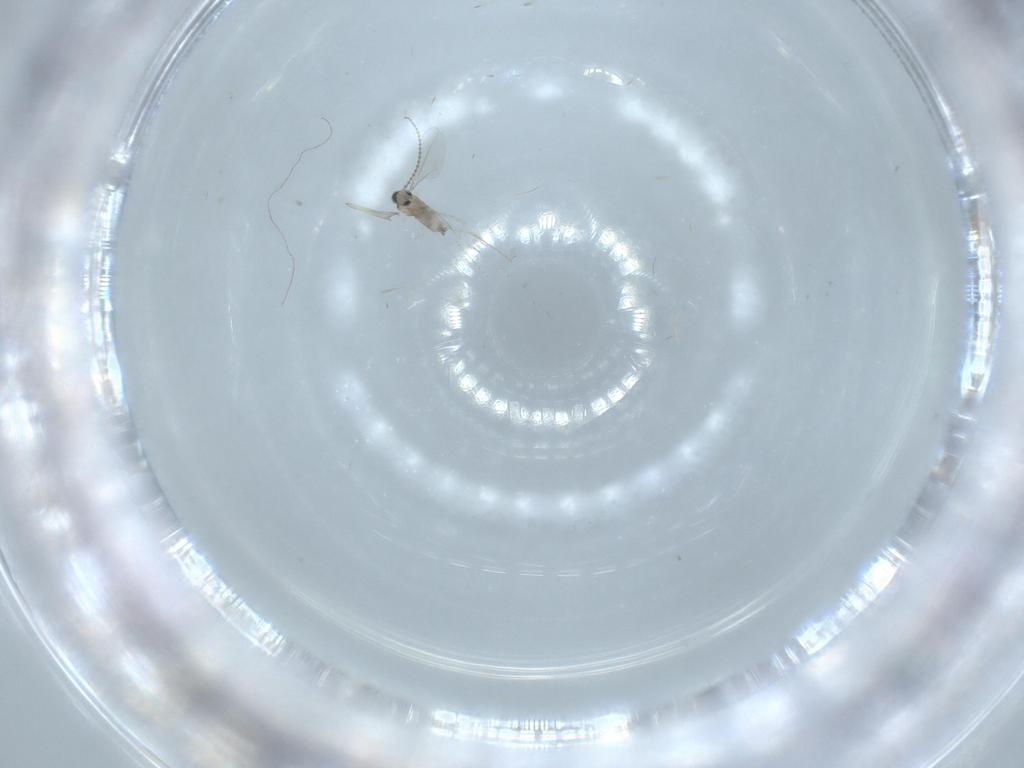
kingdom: Animalia
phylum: Arthropoda
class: Insecta
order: Diptera
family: Cecidomyiidae
